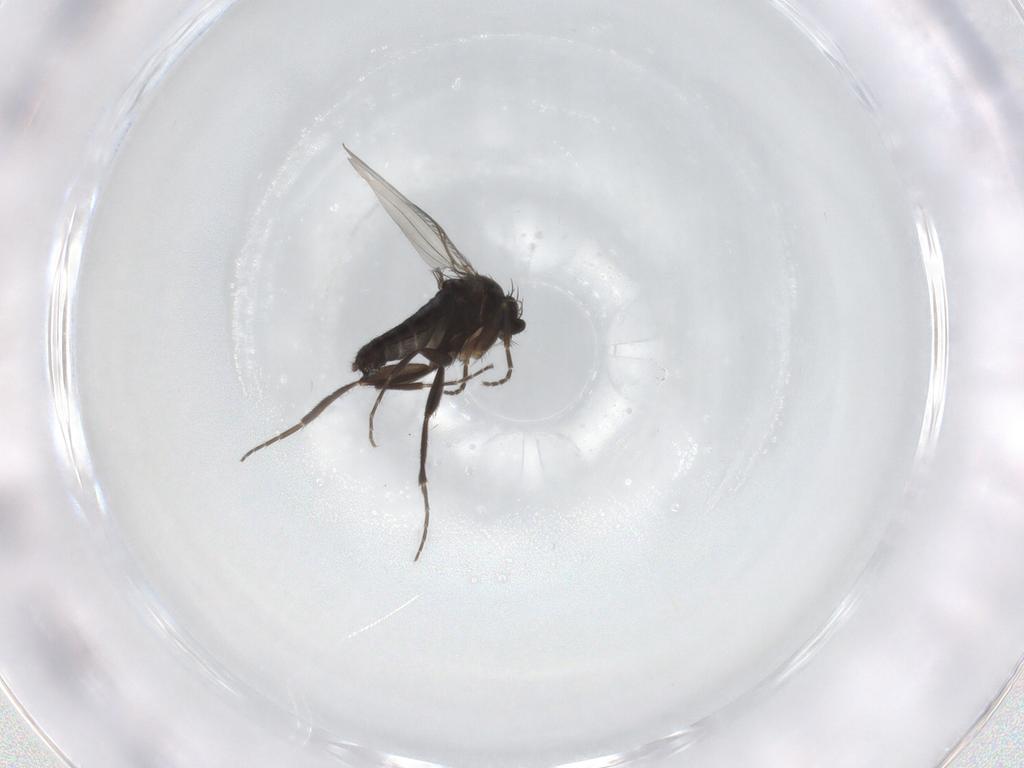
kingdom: Animalia
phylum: Arthropoda
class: Insecta
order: Diptera
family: Phoridae
